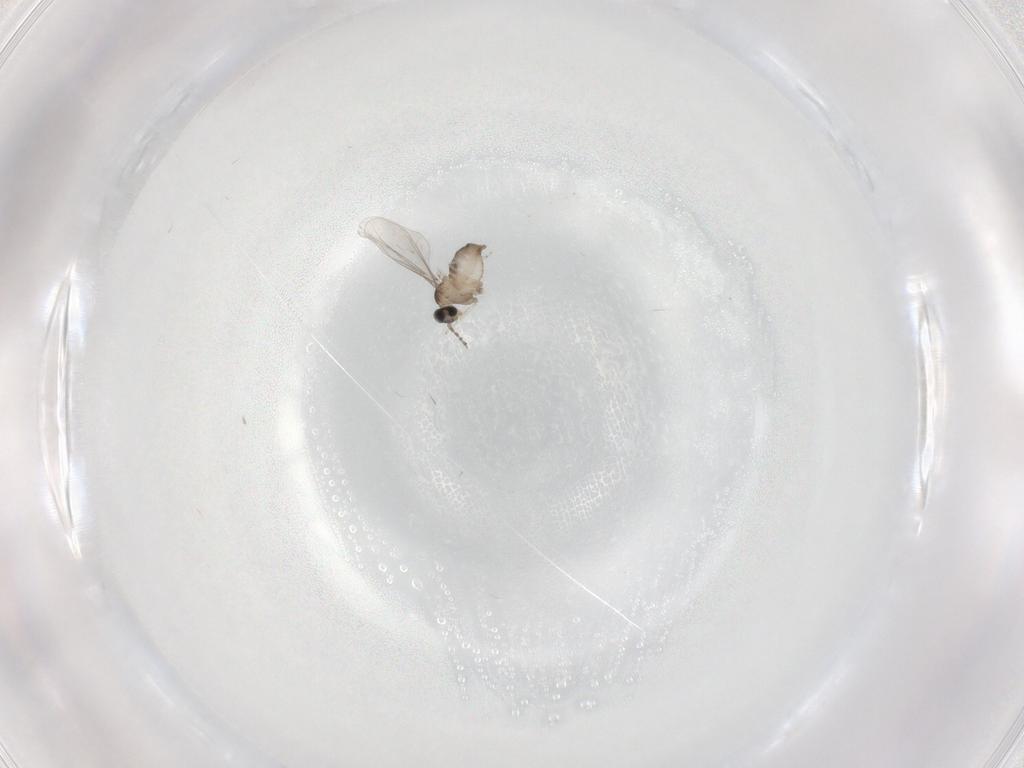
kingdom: Animalia
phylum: Arthropoda
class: Insecta
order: Diptera
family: Cecidomyiidae
